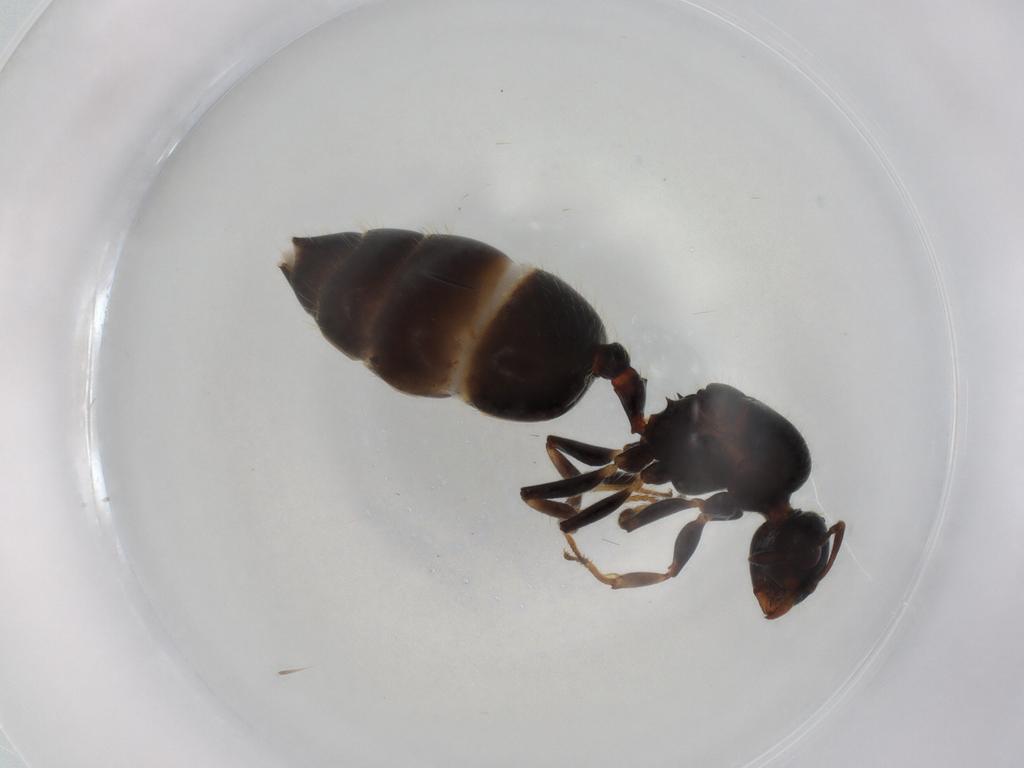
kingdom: Animalia
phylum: Arthropoda
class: Insecta
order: Hymenoptera
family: Formicidae
